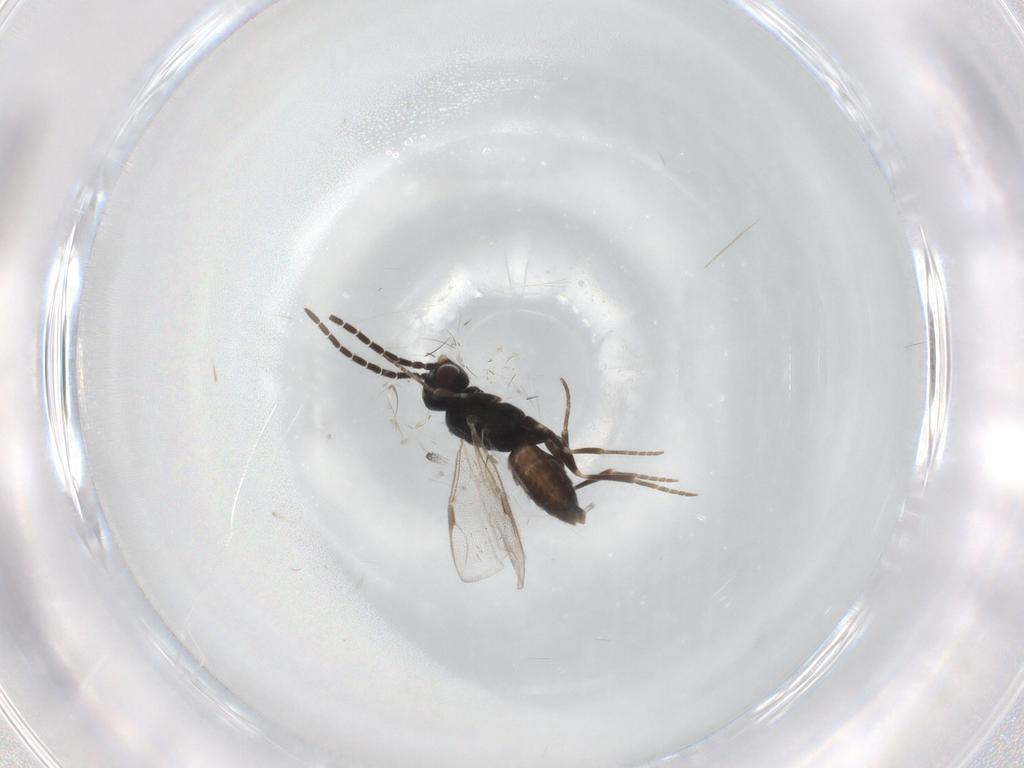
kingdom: Animalia
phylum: Arthropoda
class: Insecta
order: Hymenoptera
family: Dryinidae
